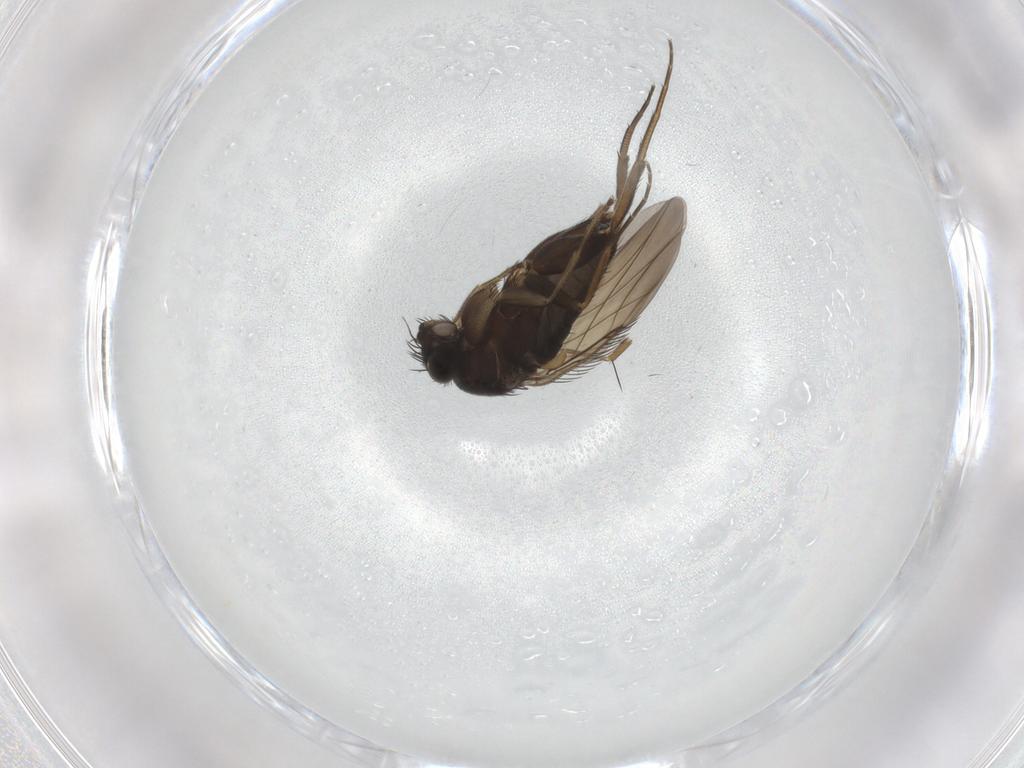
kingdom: Animalia
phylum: Arthropoda
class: Insecta
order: Diptera
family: Phoridae
